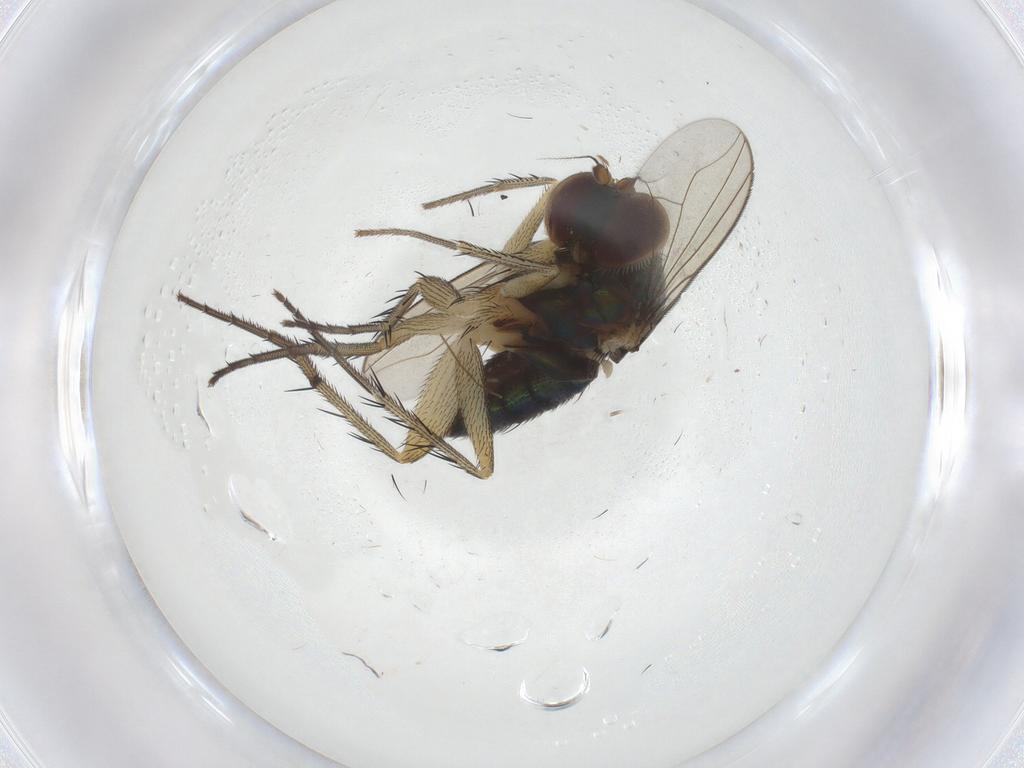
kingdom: Animalia
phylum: Arthropoda
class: Insecta
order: Diptera
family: Dolichopodidae
